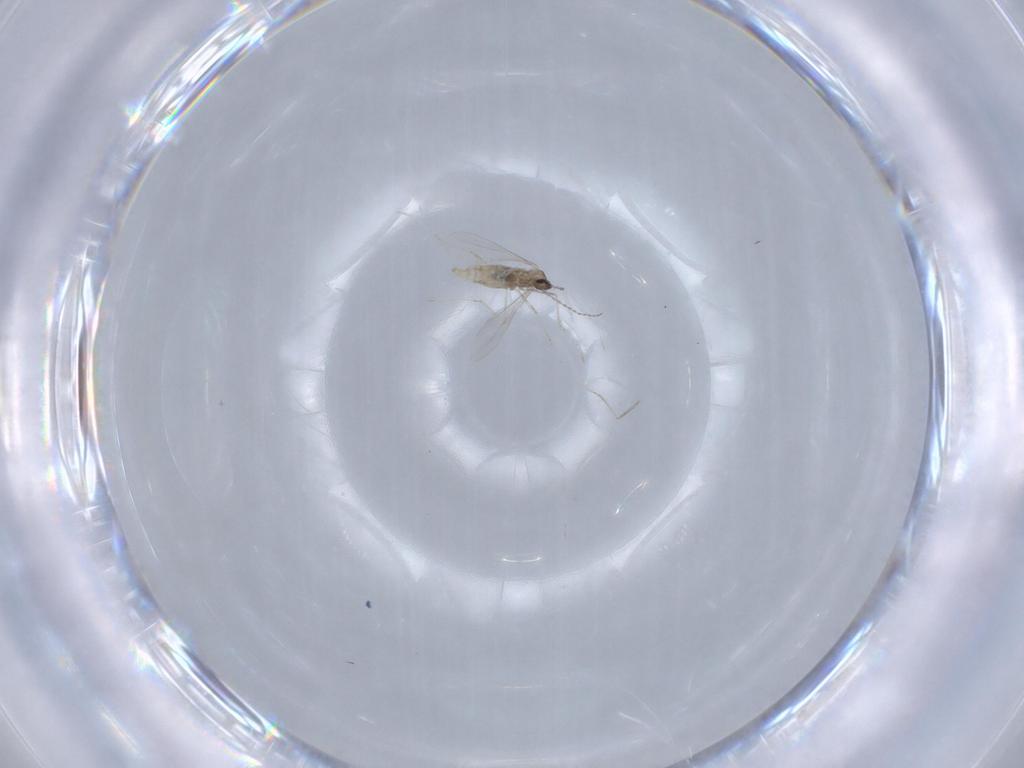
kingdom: Animalia
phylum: Arthropoda
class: Insecta
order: Diptera
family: Cecidomyiidae
